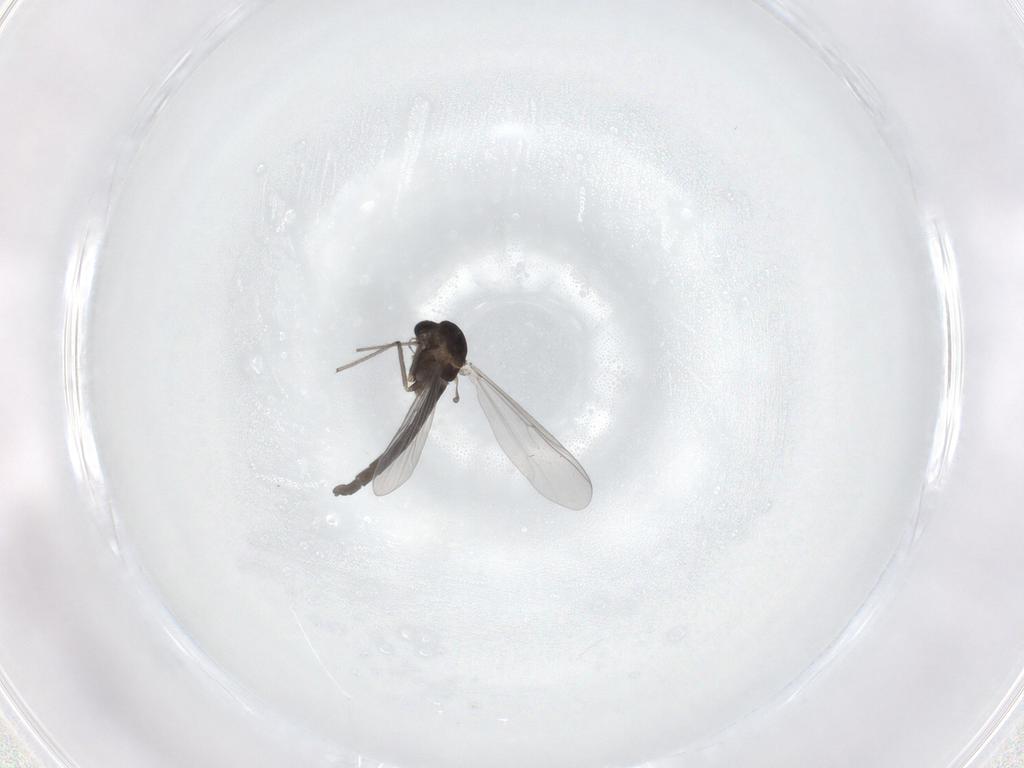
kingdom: Animalia
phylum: Arthropoda
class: Insecta
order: Diptera
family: Chironomidae
